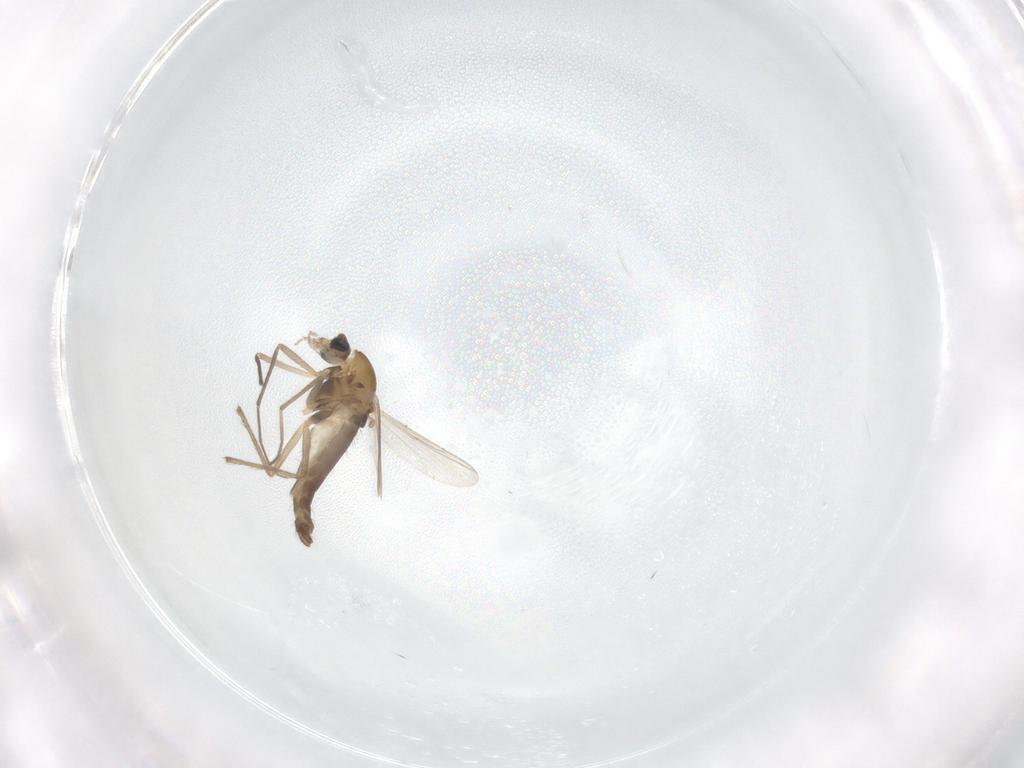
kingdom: Animalia
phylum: Arthropoda
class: Insecta
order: Diptera
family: Chironomidae
